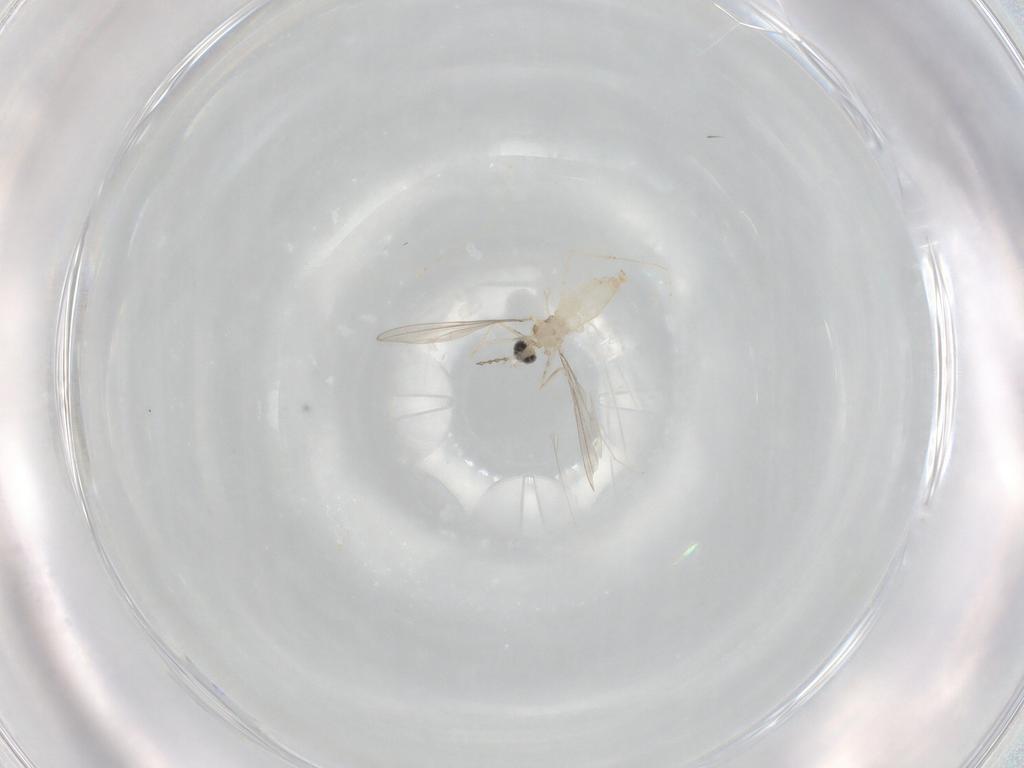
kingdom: Animalia
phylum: Arthropoda
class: Insecta
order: Diptera
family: Cecidomyiidae
